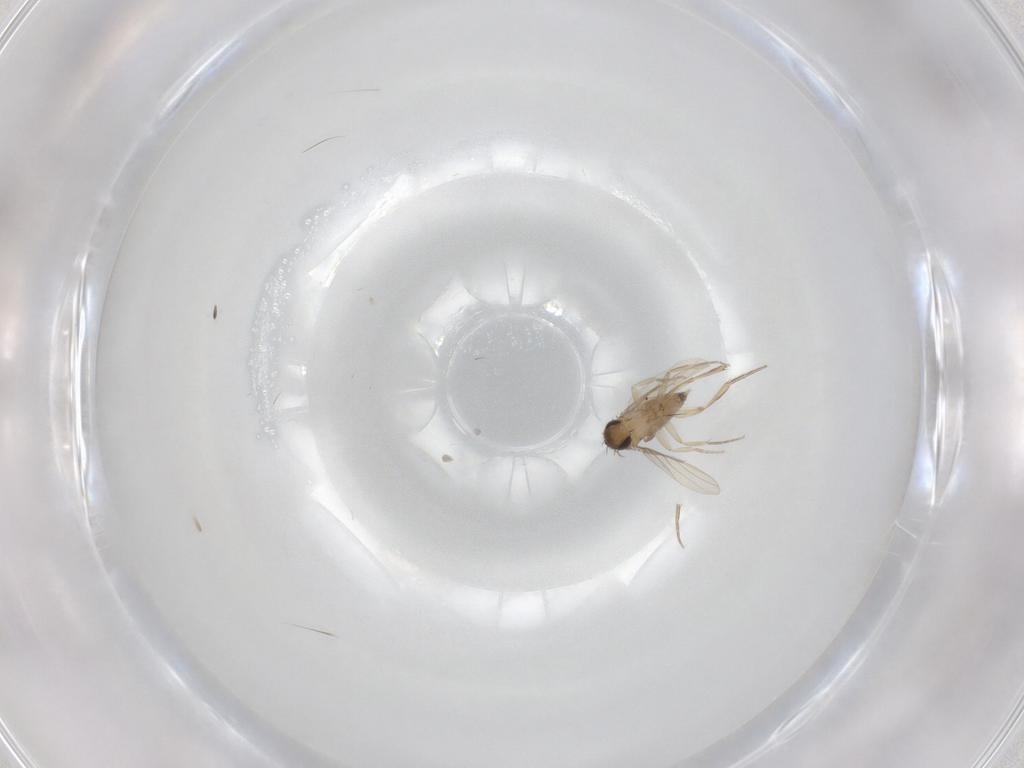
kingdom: Animalia
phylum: Arthropoda
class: Insecta
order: Diptera
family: Phoridae
